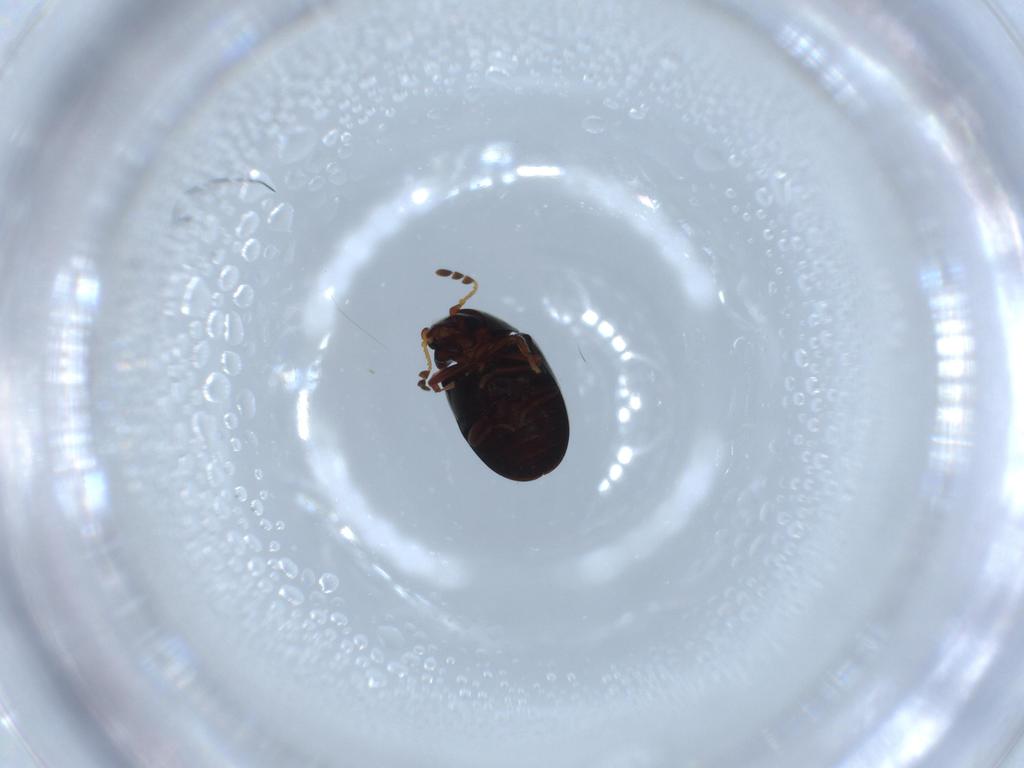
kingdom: Animalia
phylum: Arthropoda
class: Insecta
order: Coleoptera
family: Ptinidae
